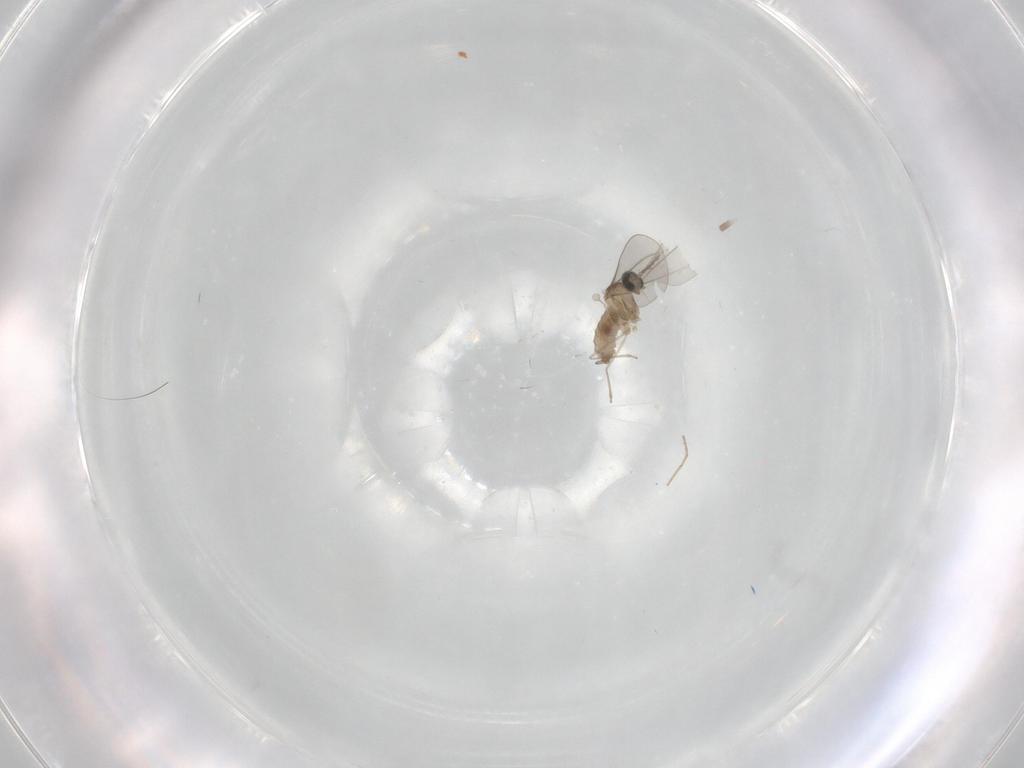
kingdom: Animalia
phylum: Arthropoda
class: Insecta
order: Diptera
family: Cecidomyiidae
